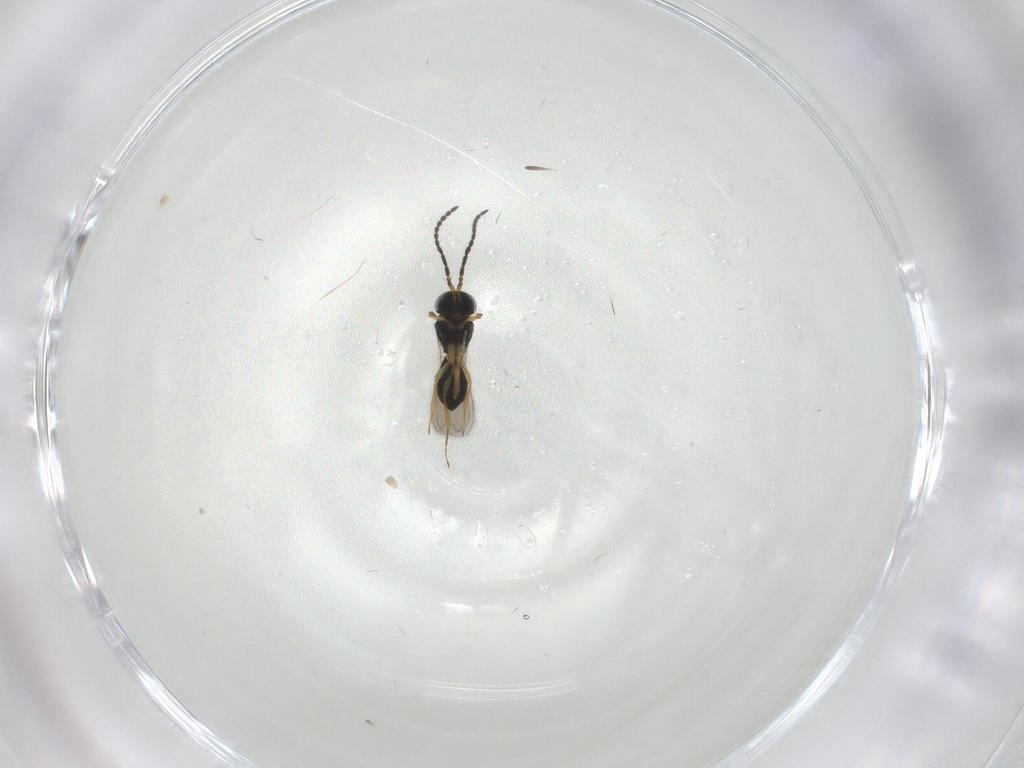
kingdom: Animalia
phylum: Arthropoda
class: Insecta
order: Hymenoptera
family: Scelionidae
